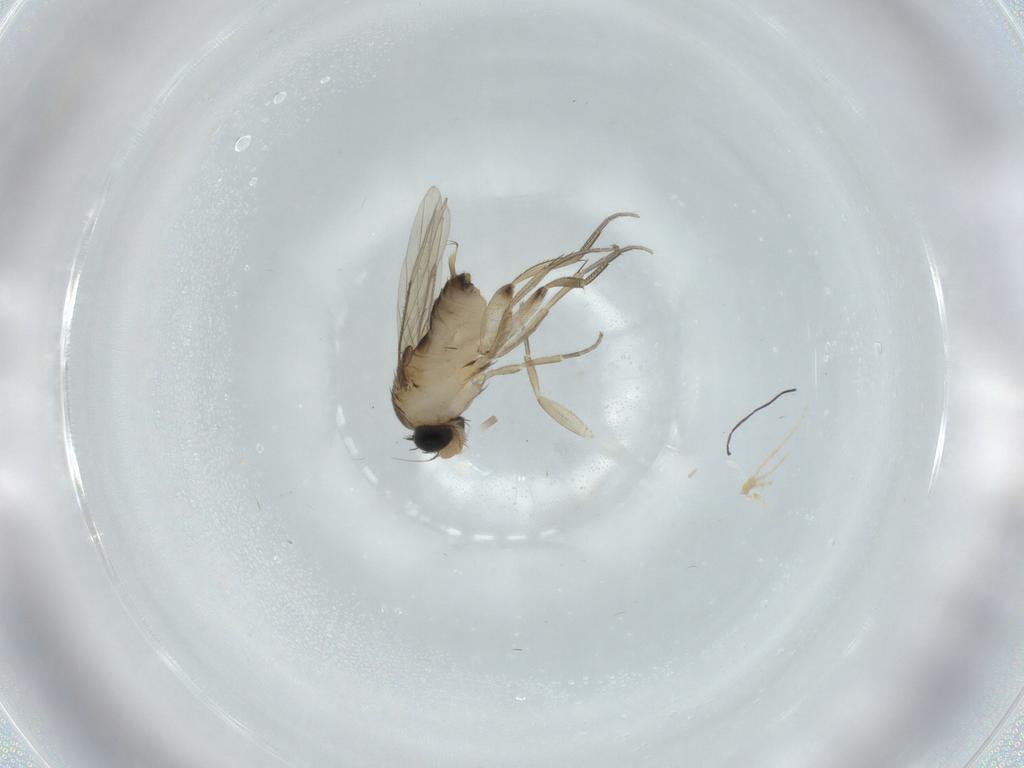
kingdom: Animalia
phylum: Arthropoda
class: Insecta
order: Diptera
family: Phoridae
